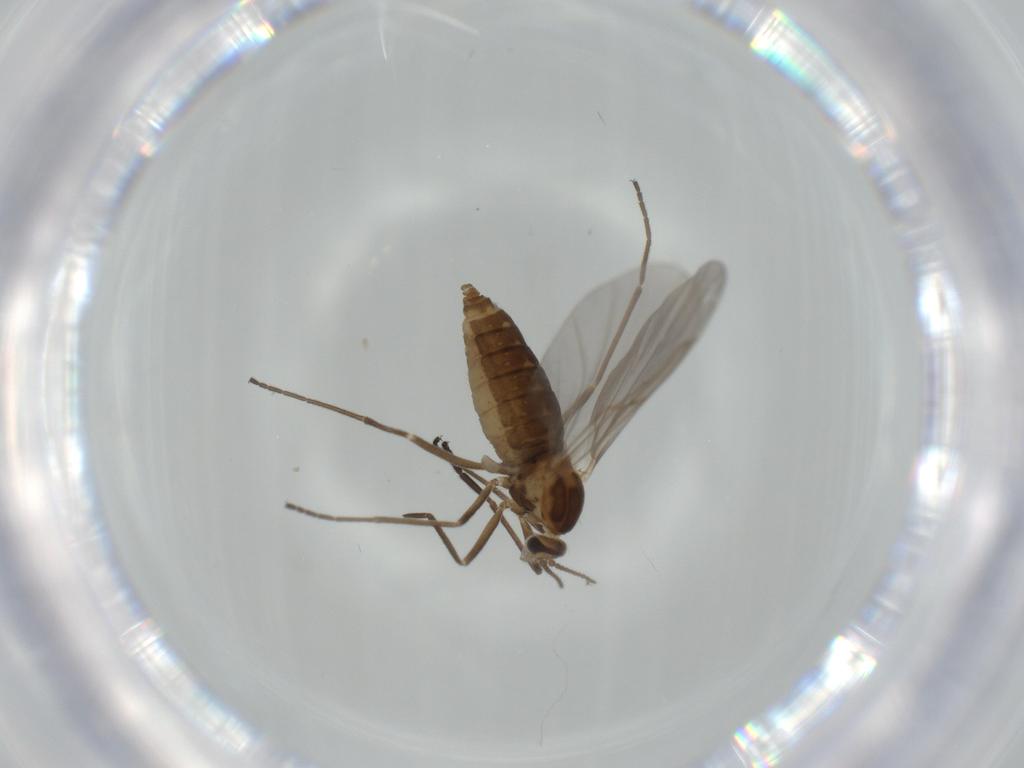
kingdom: Animalia
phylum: Arthropoda
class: Insecta
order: Diptera
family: Cecidomyiidae
